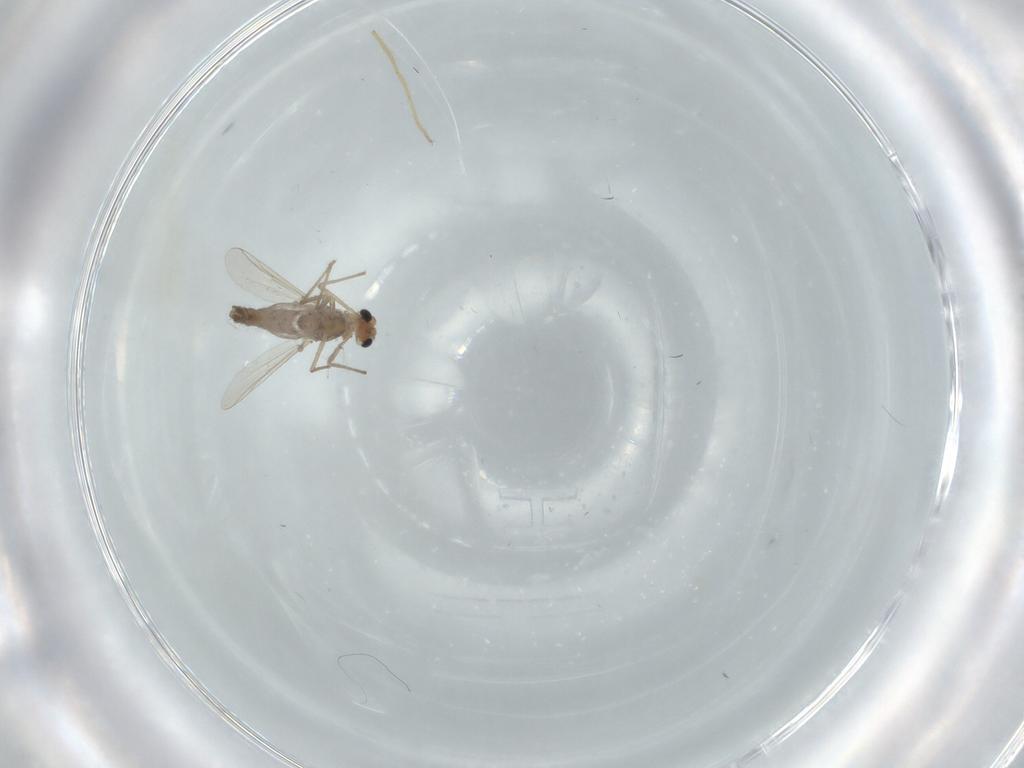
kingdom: Animalia
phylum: Arthropoda
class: Insecta
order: Diptera
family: Chironomidae
